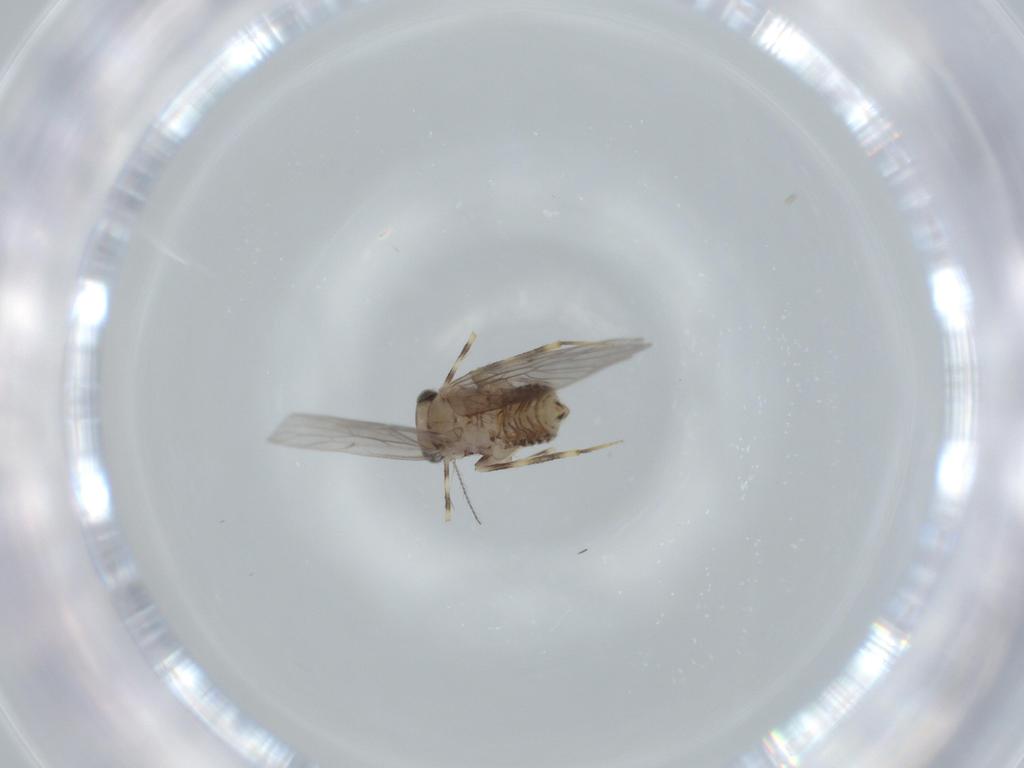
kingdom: Animalia
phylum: Arthropoda
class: Insecta
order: Psocodea
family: Lepidopsocidae
